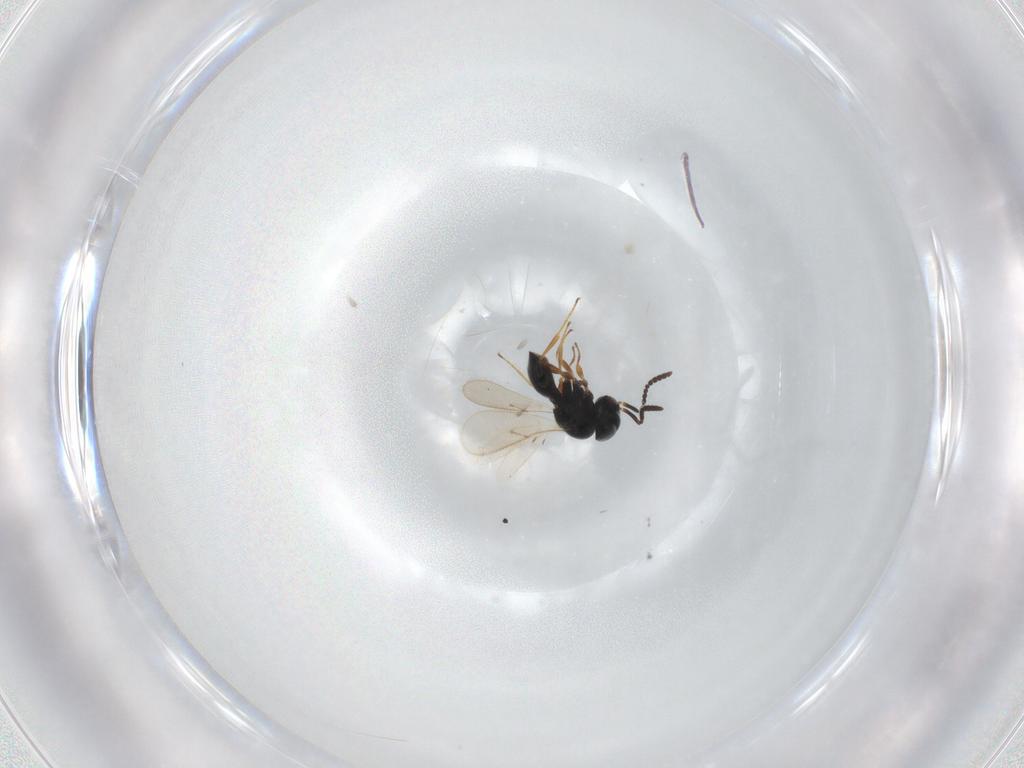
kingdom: Animalia
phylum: Arthropoda
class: Insecta
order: Hymenoptera
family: Scelionidae
